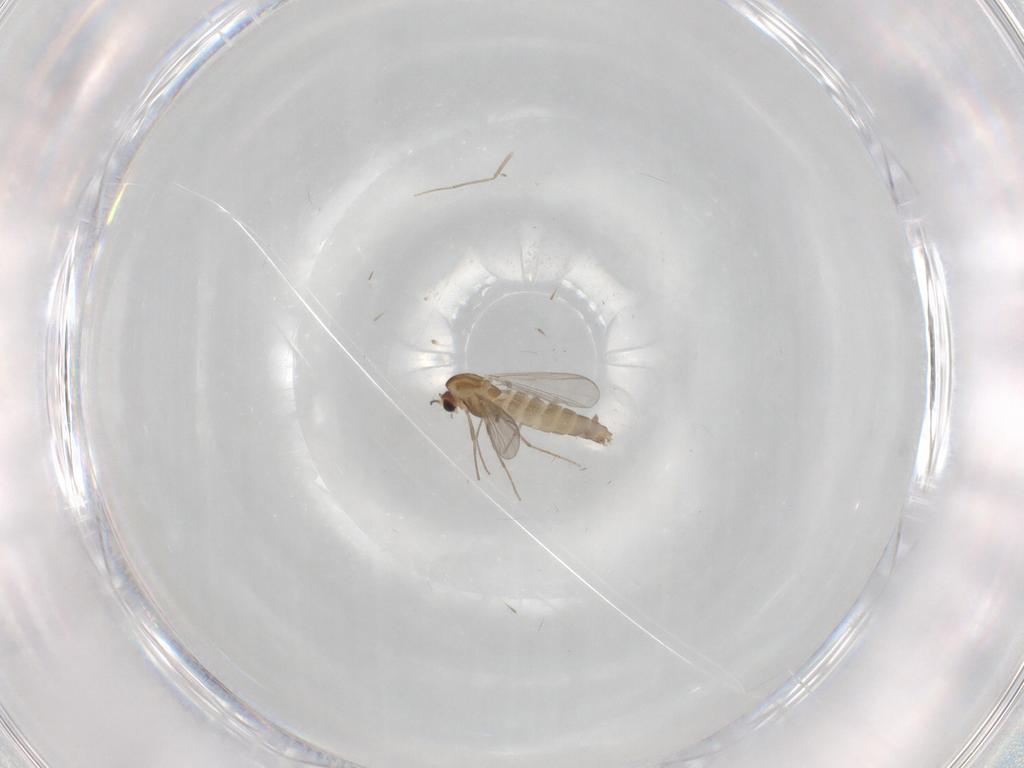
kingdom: Animalia
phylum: Arthropoda
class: Insecta
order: Diptera
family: Chironomidae
